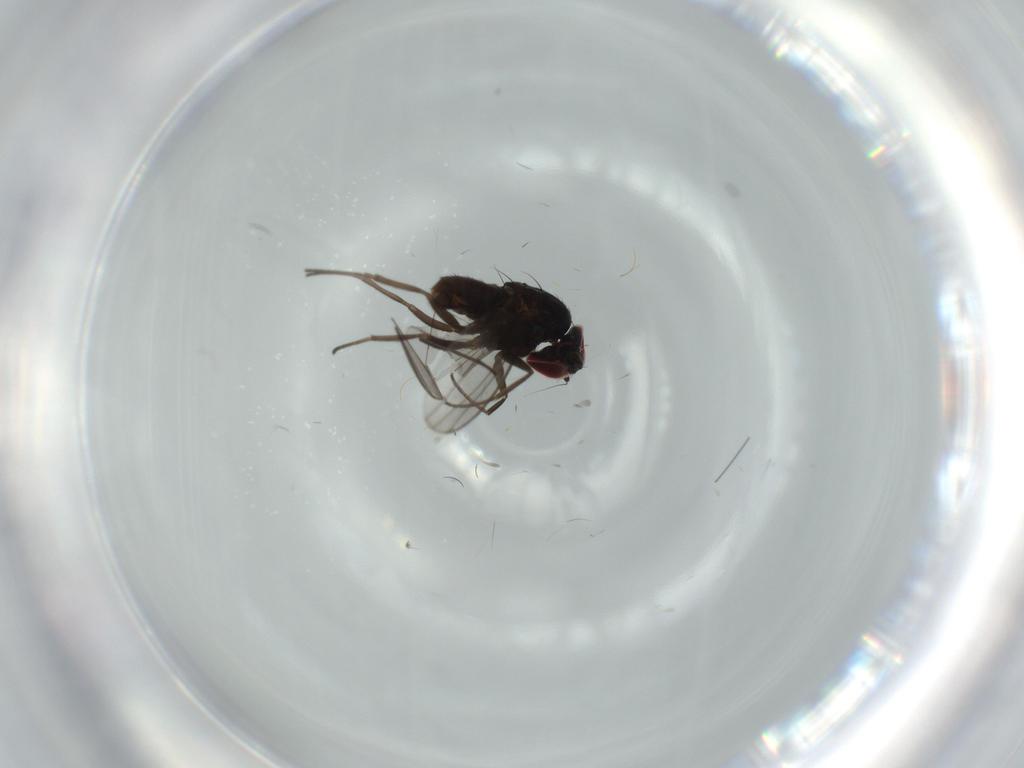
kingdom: Animalia
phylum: Arthropoda
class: Insecta
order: Diptera
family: Dolichopodidae
